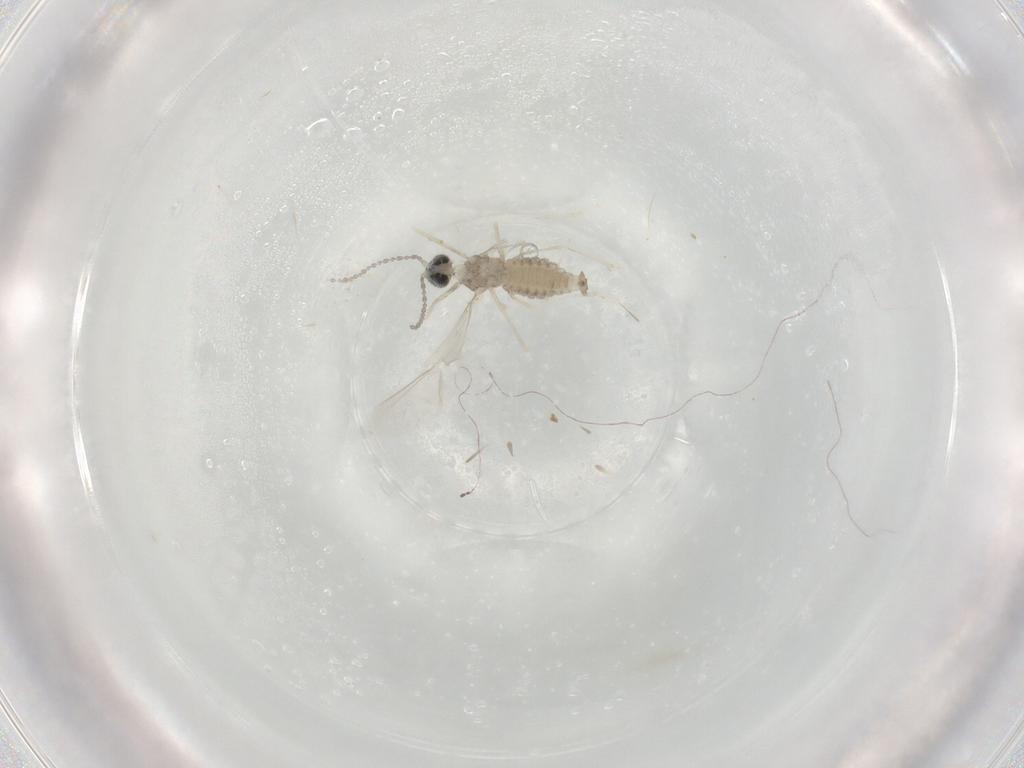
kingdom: Animalia
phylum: Arthropoda
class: Insecta
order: Diptera
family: Cecidomyiidae
